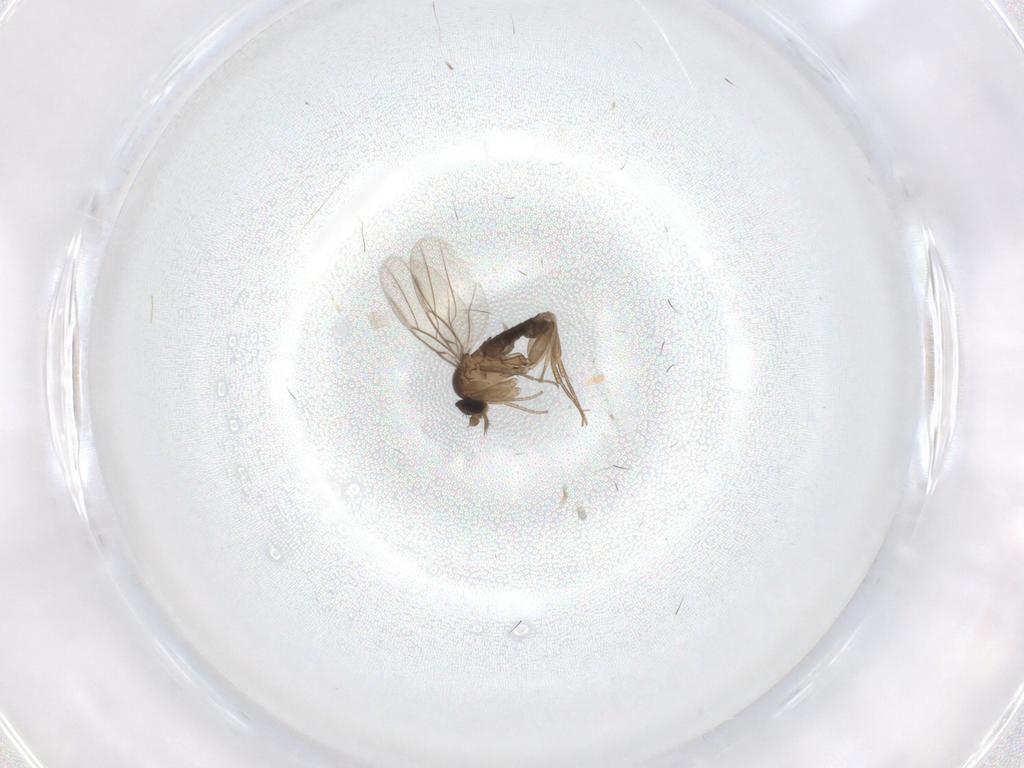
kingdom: Animalia
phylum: Arthropoda
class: Insecta
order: Diptera
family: Phoridae
